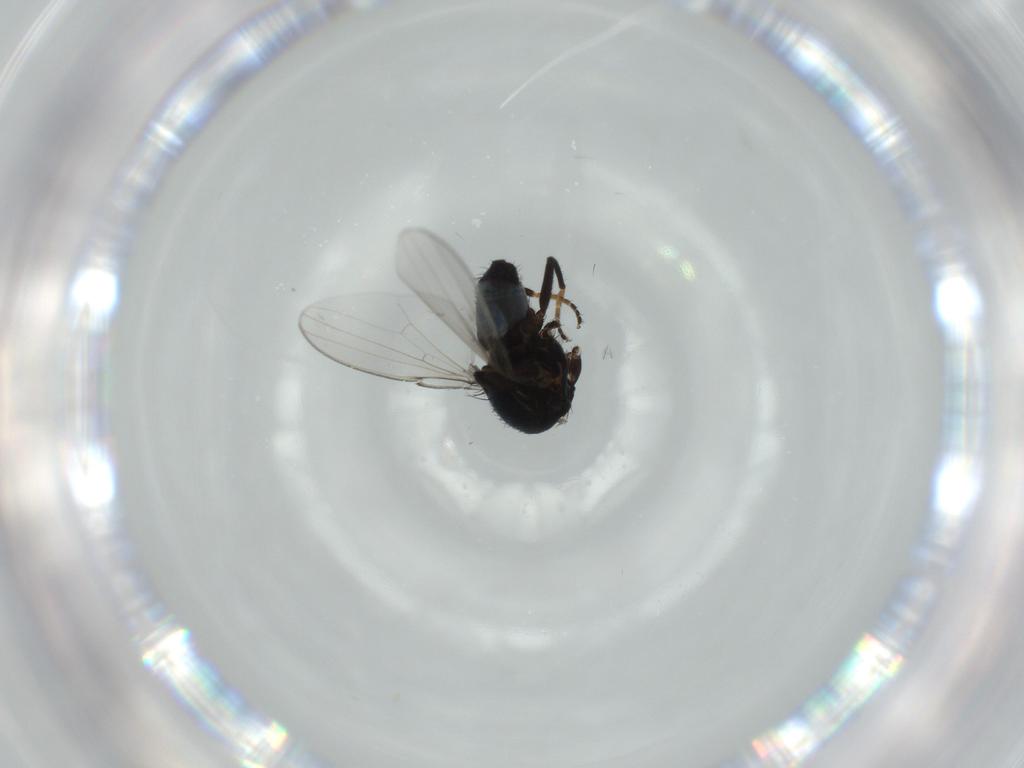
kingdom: Animalia
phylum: Arthropoda
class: Insecta
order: Diptera
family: Milichiidae
